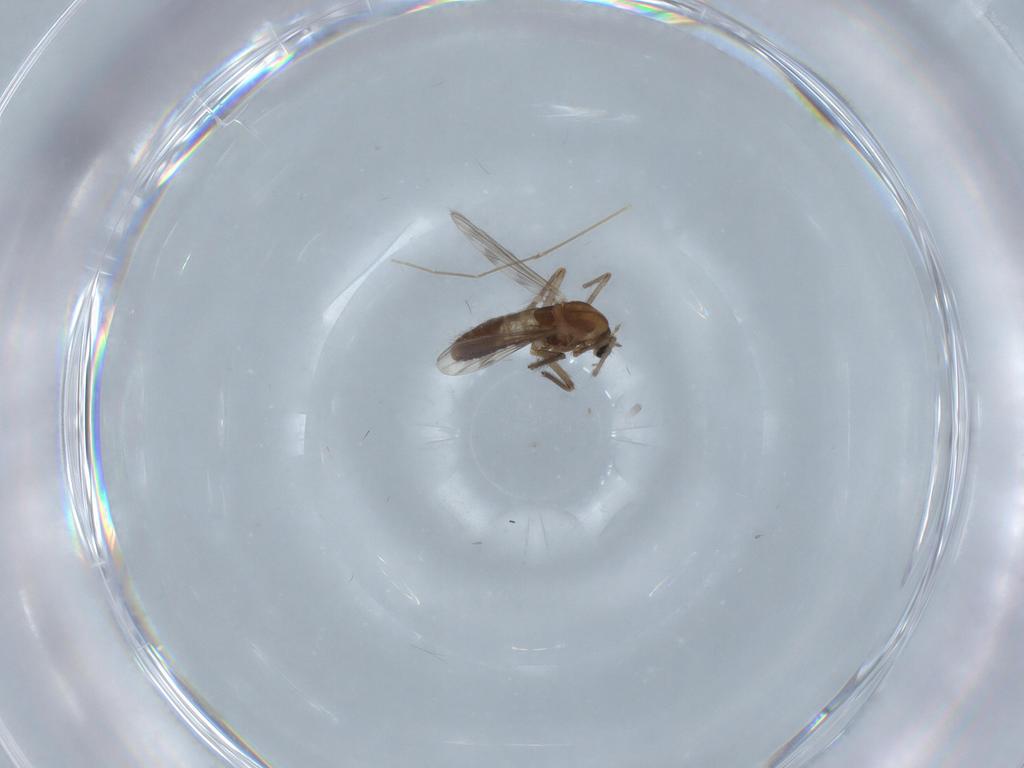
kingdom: Animalia
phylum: Arthropoda
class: Insecta
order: Diptera
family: Chironomidae
